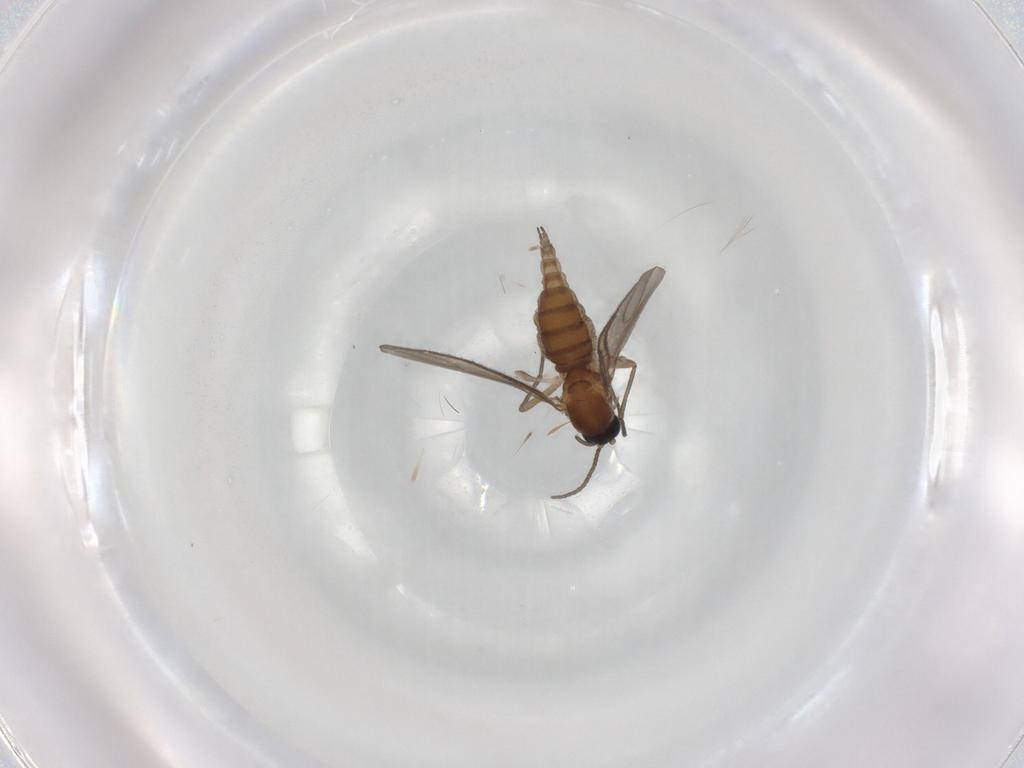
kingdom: Animalia
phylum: Arthropoda
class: Insecta
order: Diptera
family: Sciaridae
